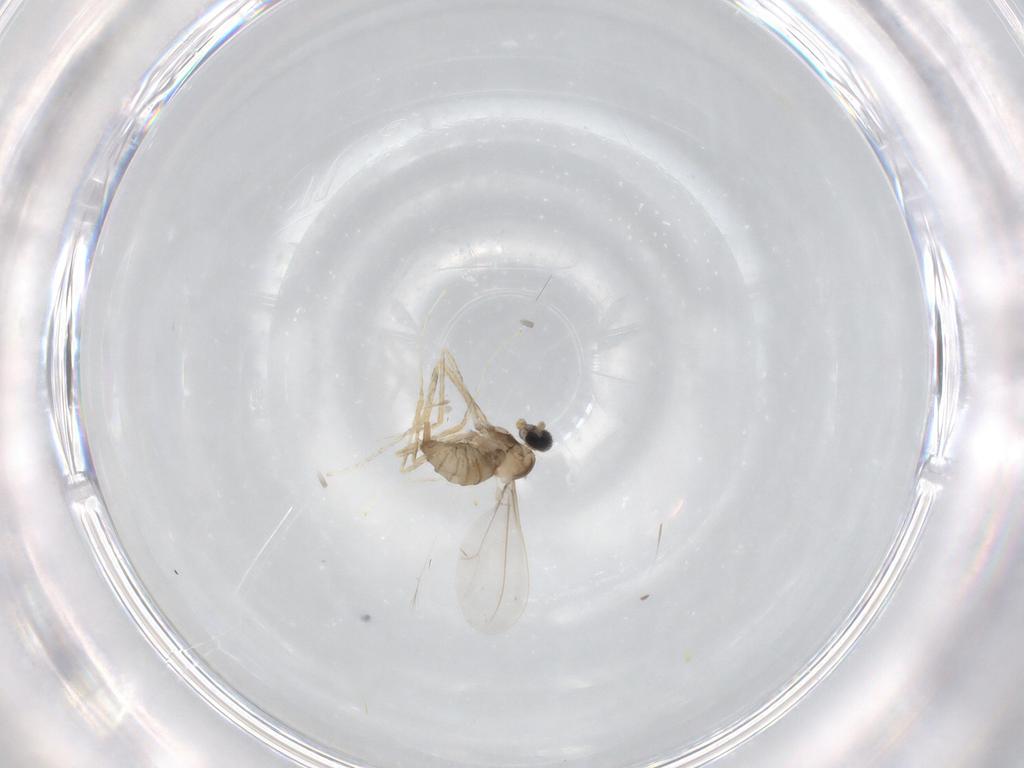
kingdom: Animalia
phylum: Arthropoda
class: Insecta
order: Diptera
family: Cecidomyiidae
